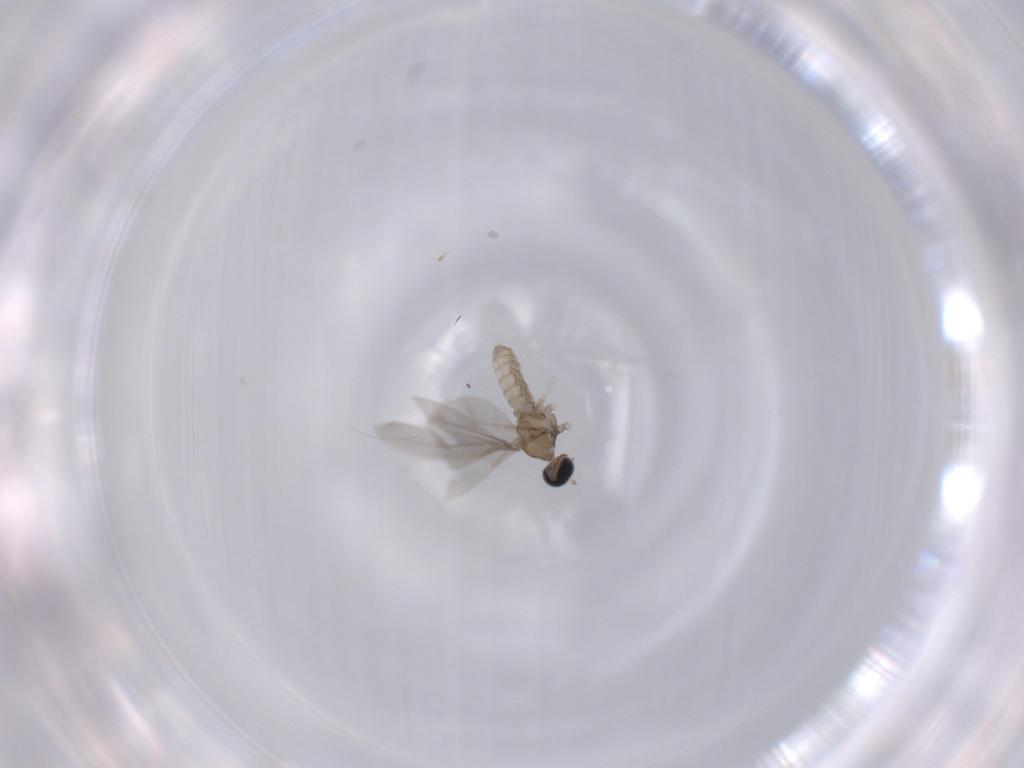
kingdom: Animalia
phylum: Arthropoda
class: Insecta
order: Diptera
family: Cecidomyiidae
